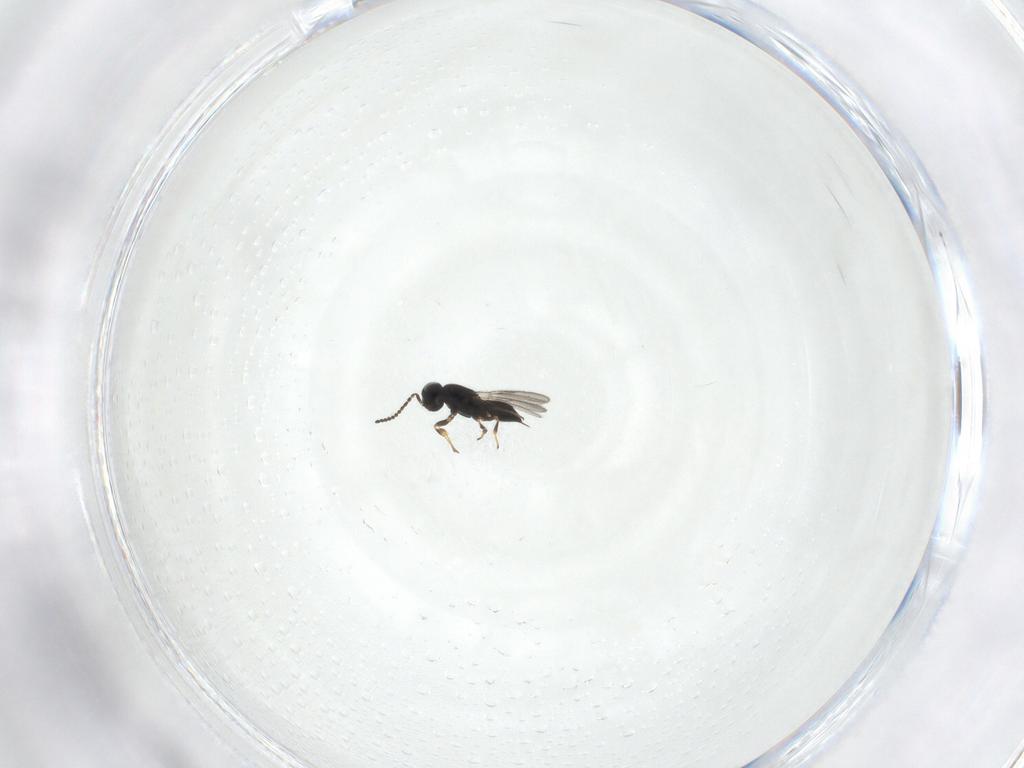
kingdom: Animalia
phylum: Arthropoda
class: Insecta
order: Hymenoptera
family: Scelionidae
